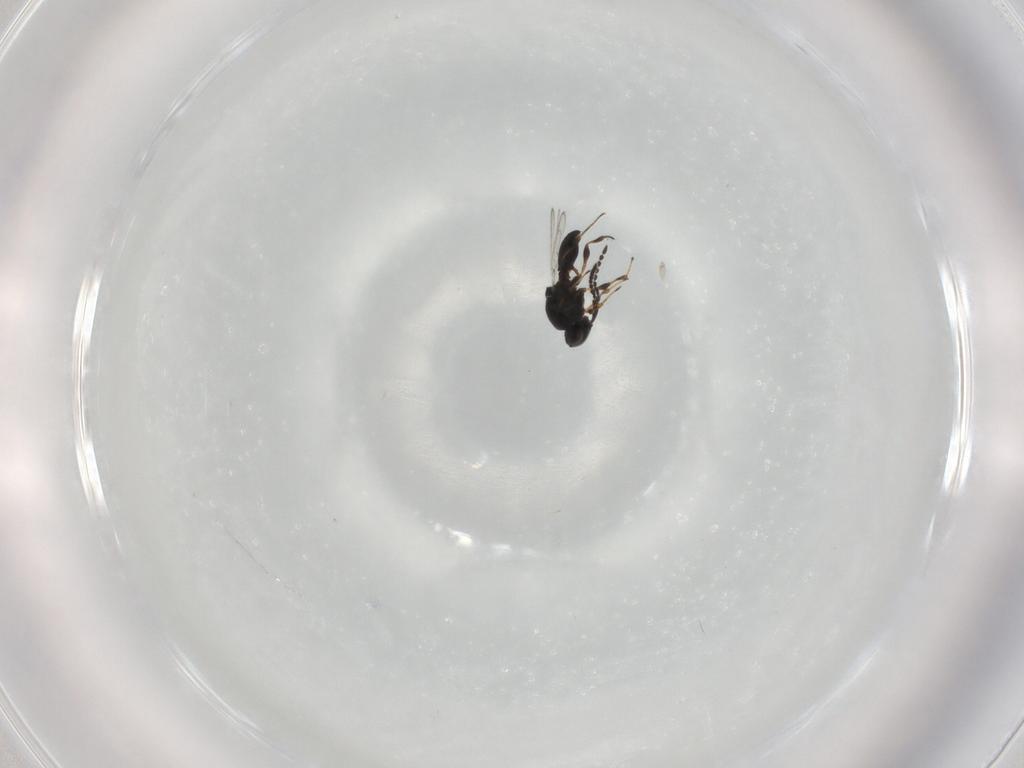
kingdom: Animalia
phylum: Arthropoda
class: Insecta
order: Hymenoptera
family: Platygastridae
